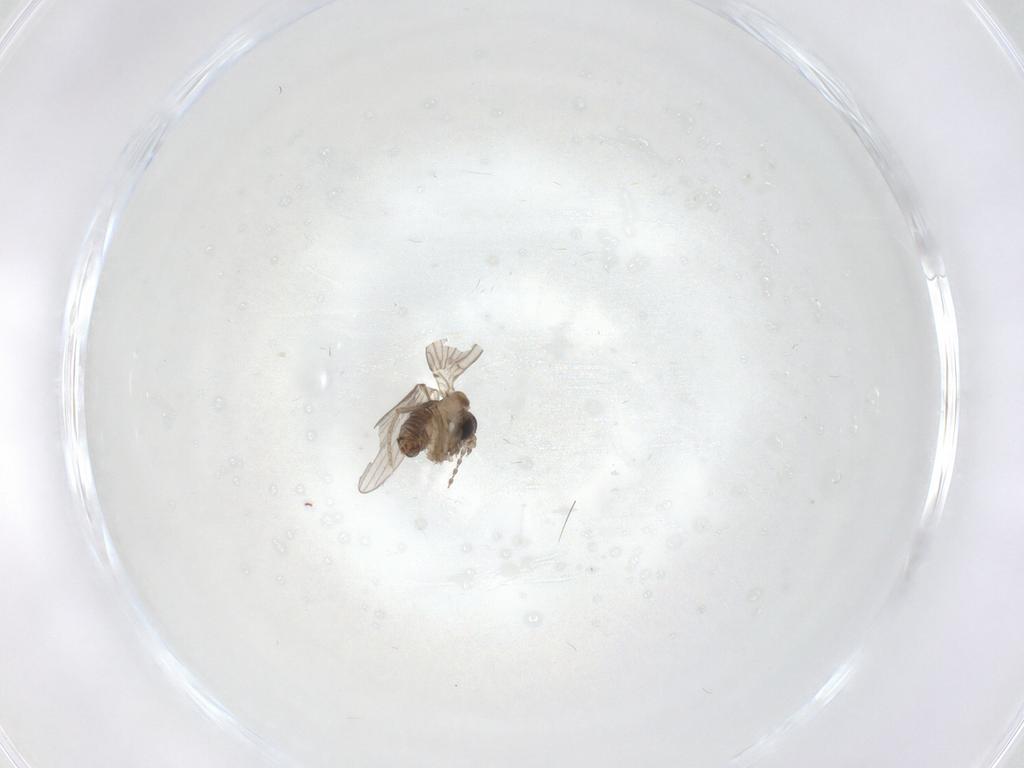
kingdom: Animalia
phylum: Arthropoda
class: Insecta
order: Diptera
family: Psychodidae
